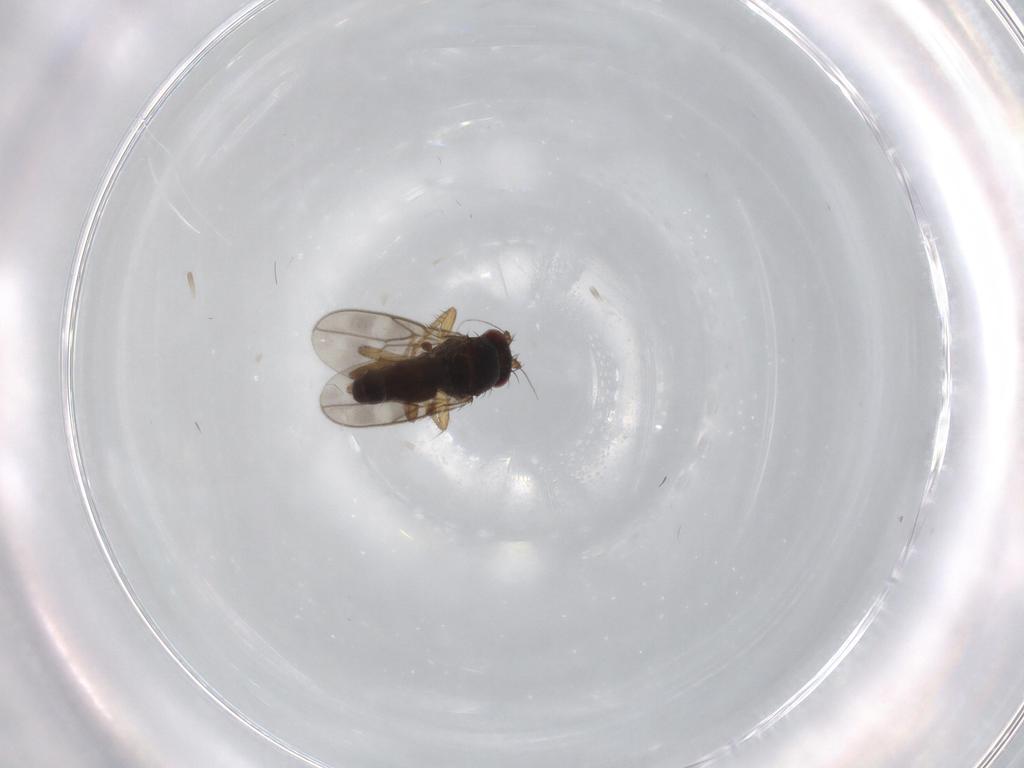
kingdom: Animalia
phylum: Arthropoda
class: Insecta
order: Diptera
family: Sphaeroceridae
